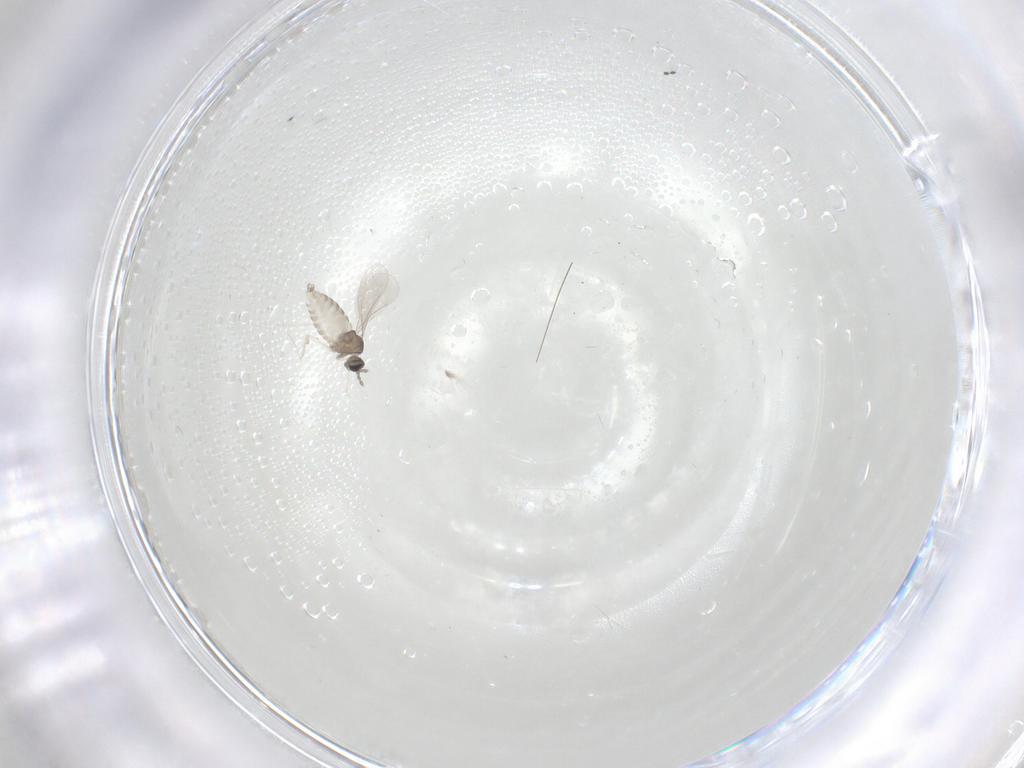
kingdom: Animalia
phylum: Arthropoda
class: Insecta
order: Diptera
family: Cecidomyiidae
